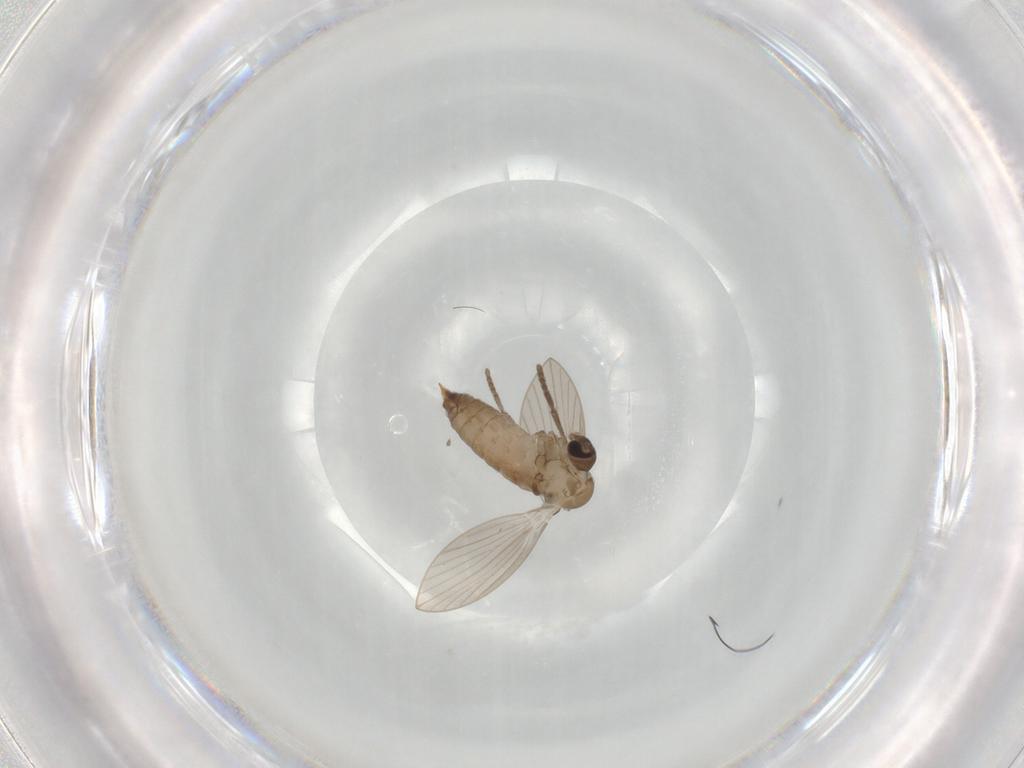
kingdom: Animalia
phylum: Arthropoda
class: Insecta
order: Diptera
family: Psychodidae
